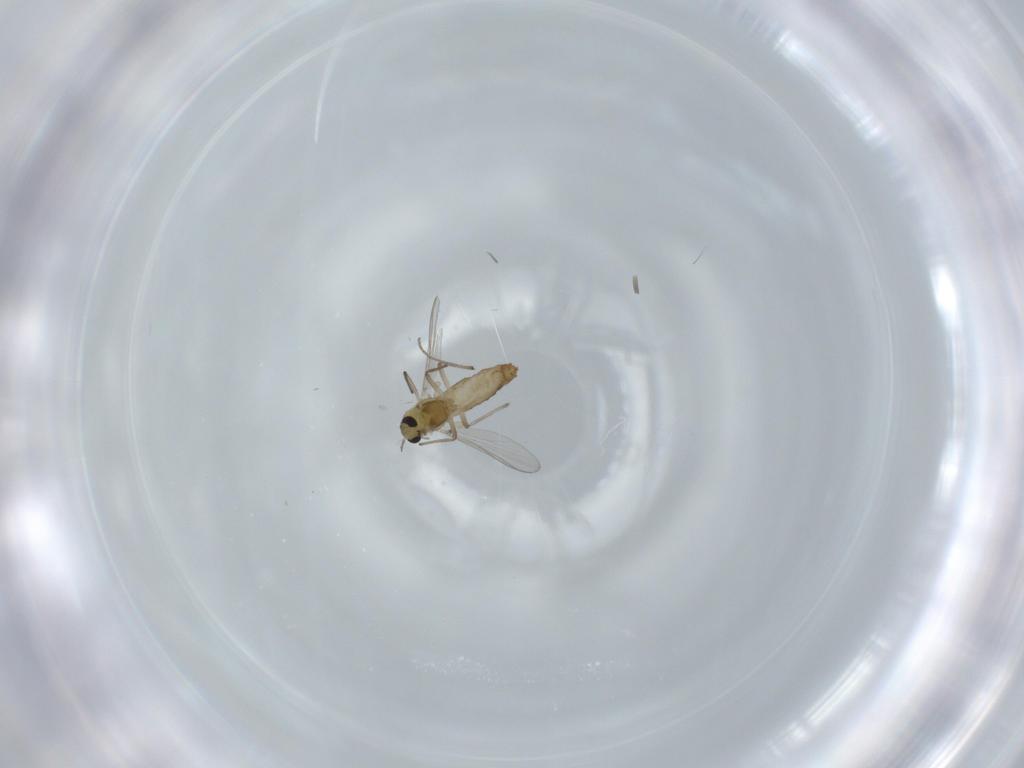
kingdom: Animalia
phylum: Arthropoda
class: Insecta
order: Diptera
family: Chironomidae
